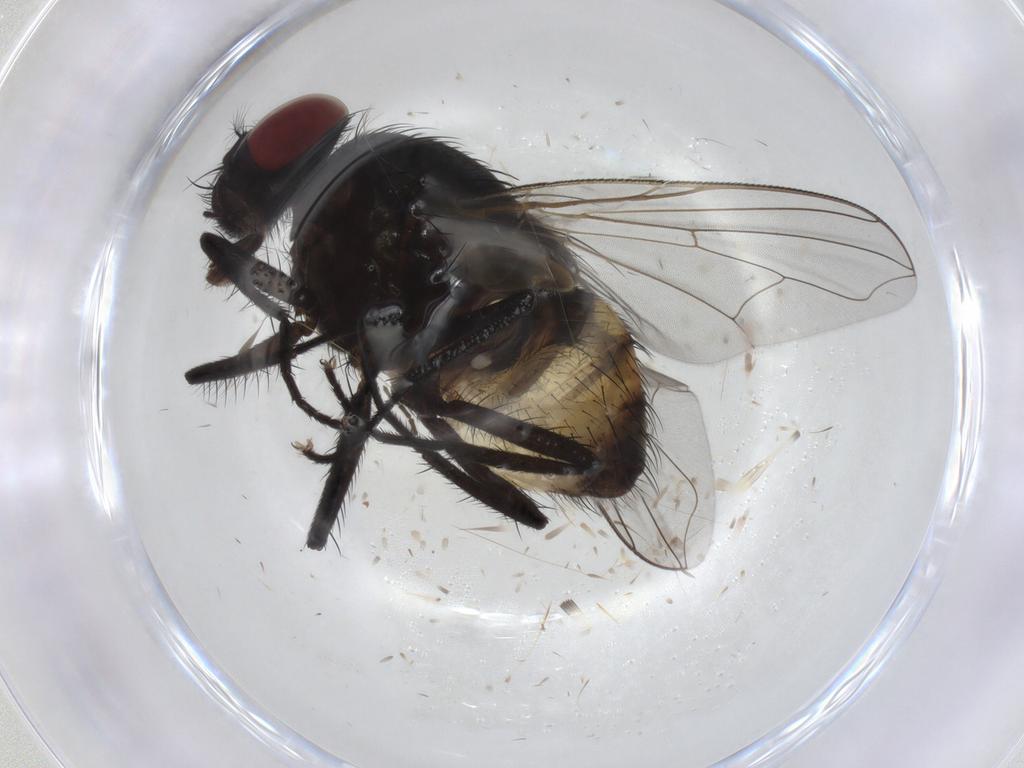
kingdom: Animalia
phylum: Arthropoda
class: Insecta
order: Diptera
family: Muscidae
